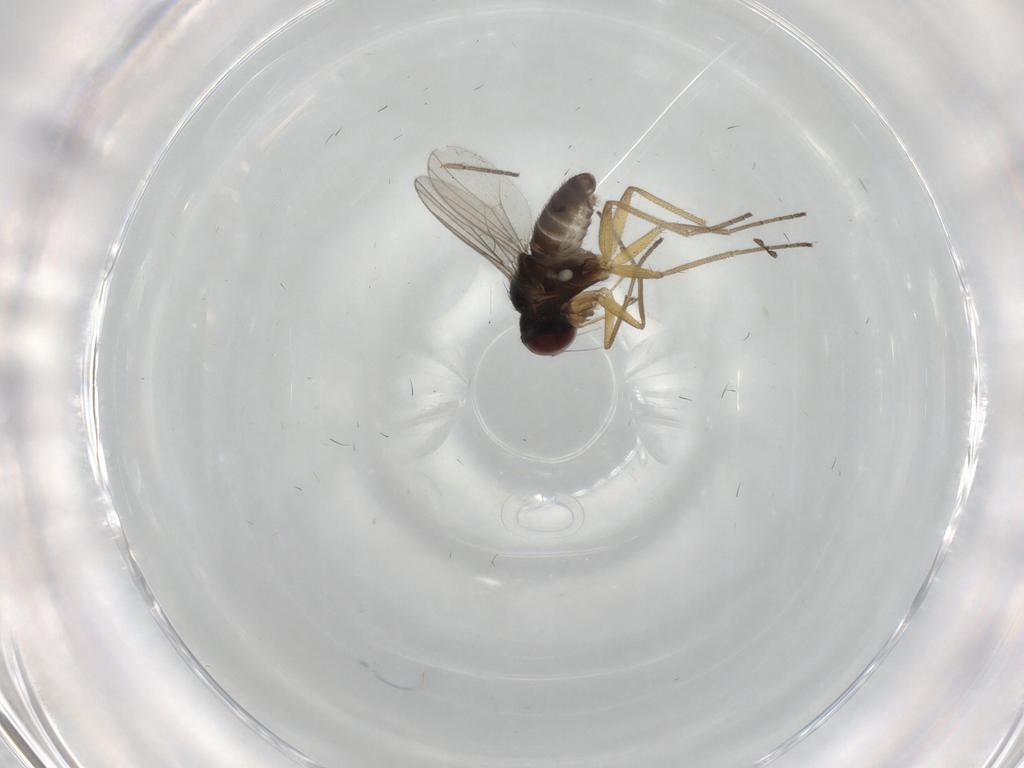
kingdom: Animalia
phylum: Arthropoda
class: Insecta
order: Diptera
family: Dolichopodidae
